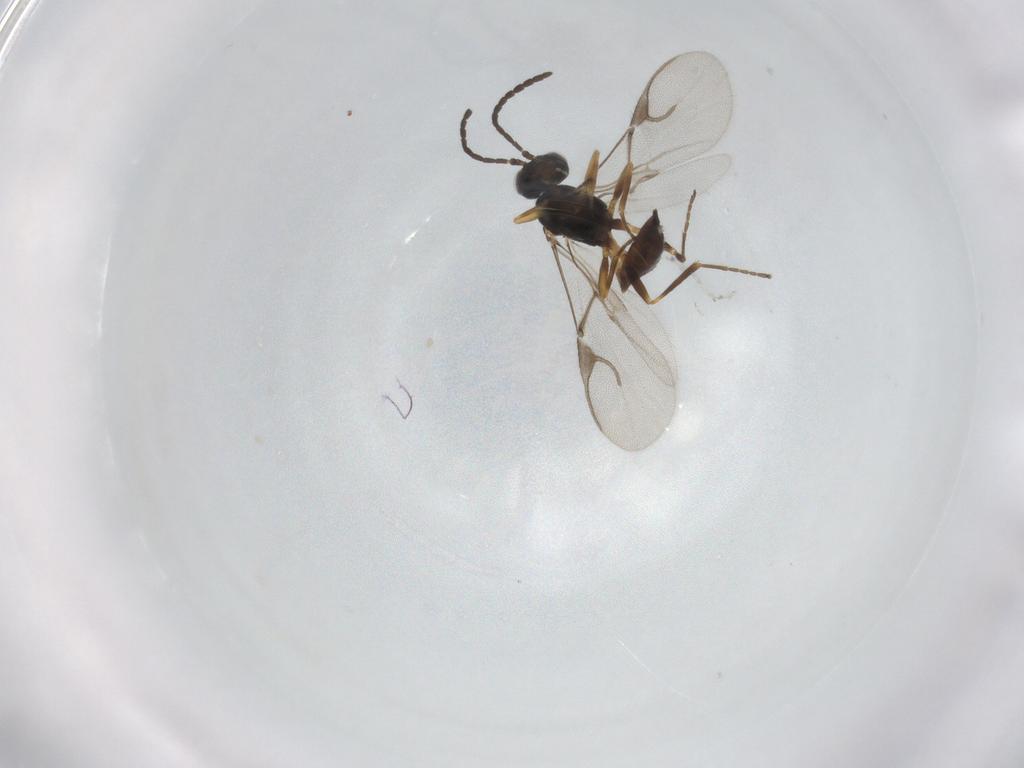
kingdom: Animalia
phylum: Arthropoda
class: Insecta
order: Hymenoptera
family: Braconidae
